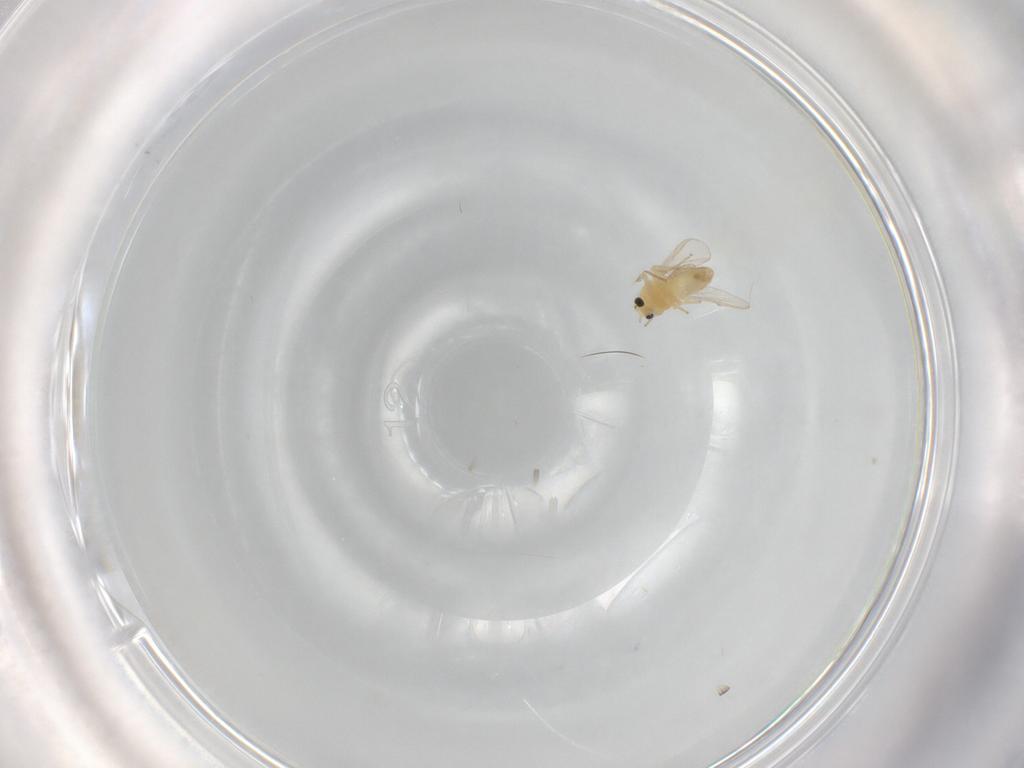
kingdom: Animalia
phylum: Arthropoda
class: Insecta
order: Diptera
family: Chironomidae
